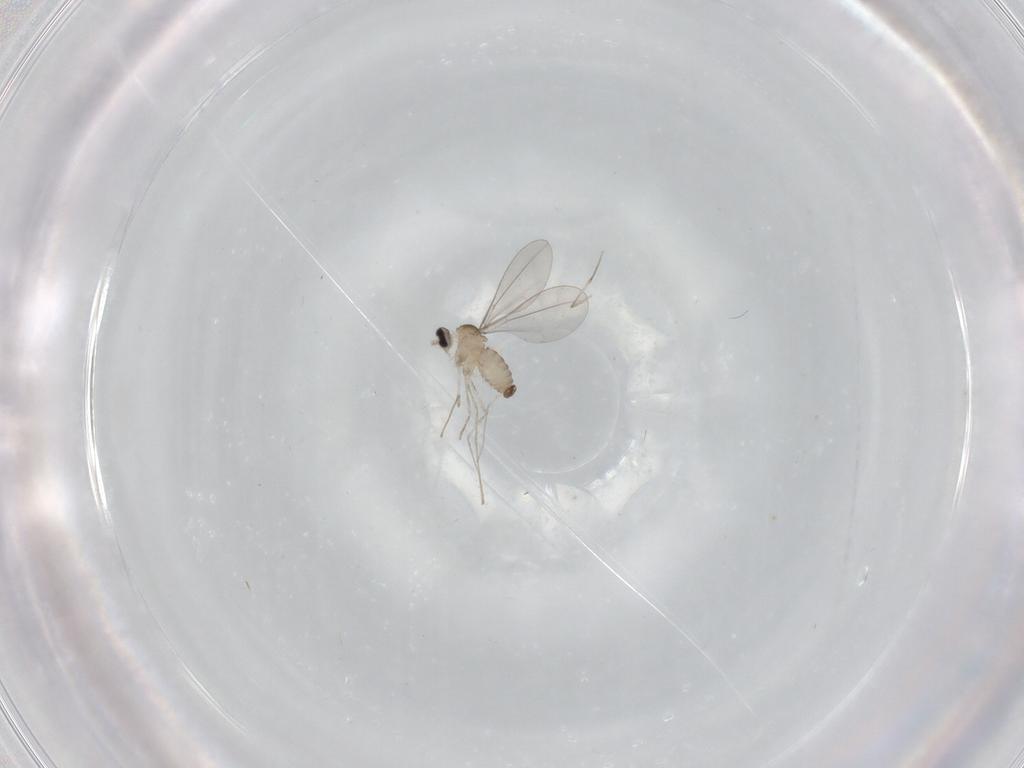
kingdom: Animalia
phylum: Arthropoda
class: Insecta
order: Diptera
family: Cecidomyiidae
